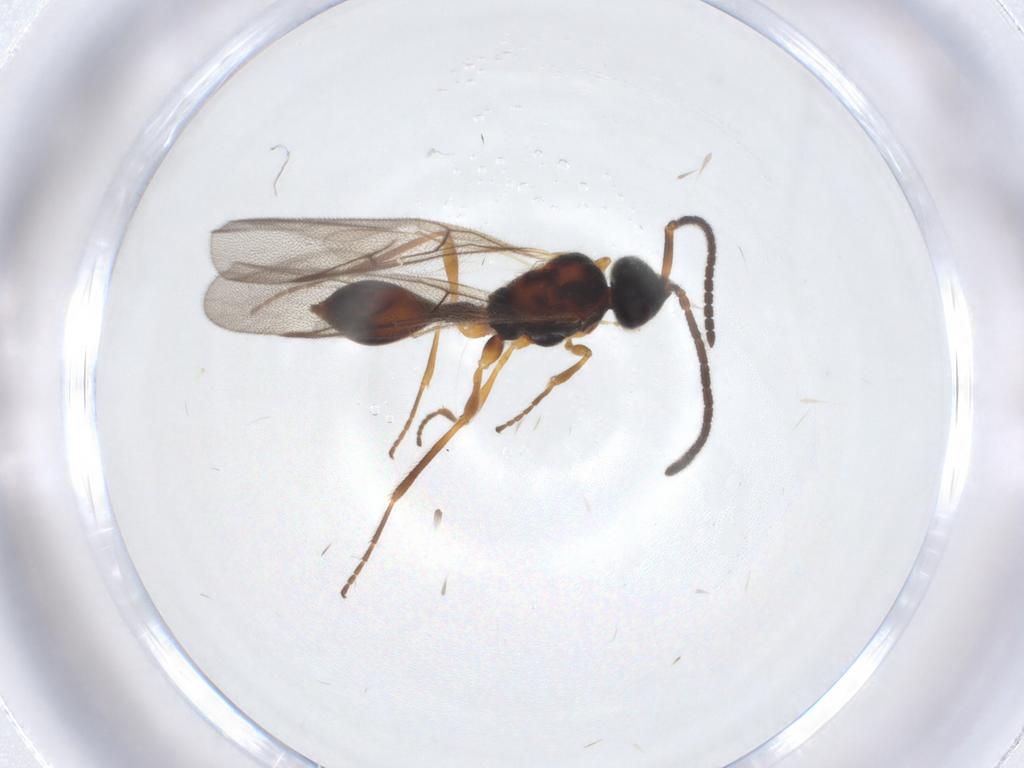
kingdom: Animalia
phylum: Arthropoda
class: Insecta
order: Hymenoptera
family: Diapriidae
